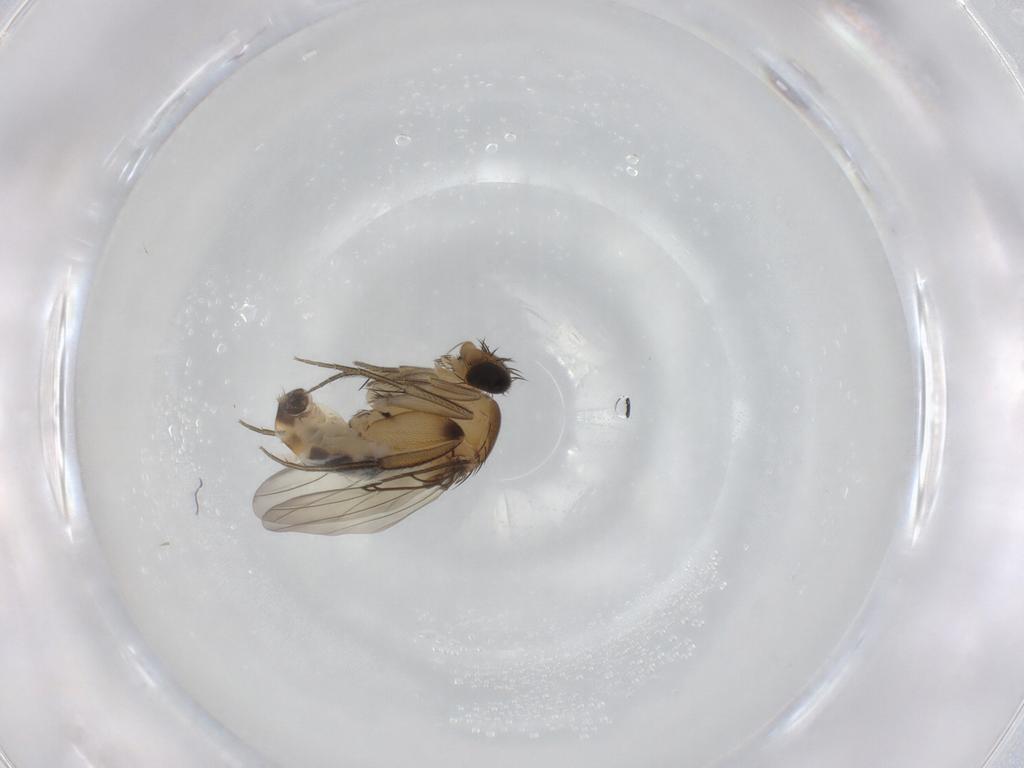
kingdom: Animalia
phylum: Arthropoda
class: Insecta
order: Diptera
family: Phoridae
